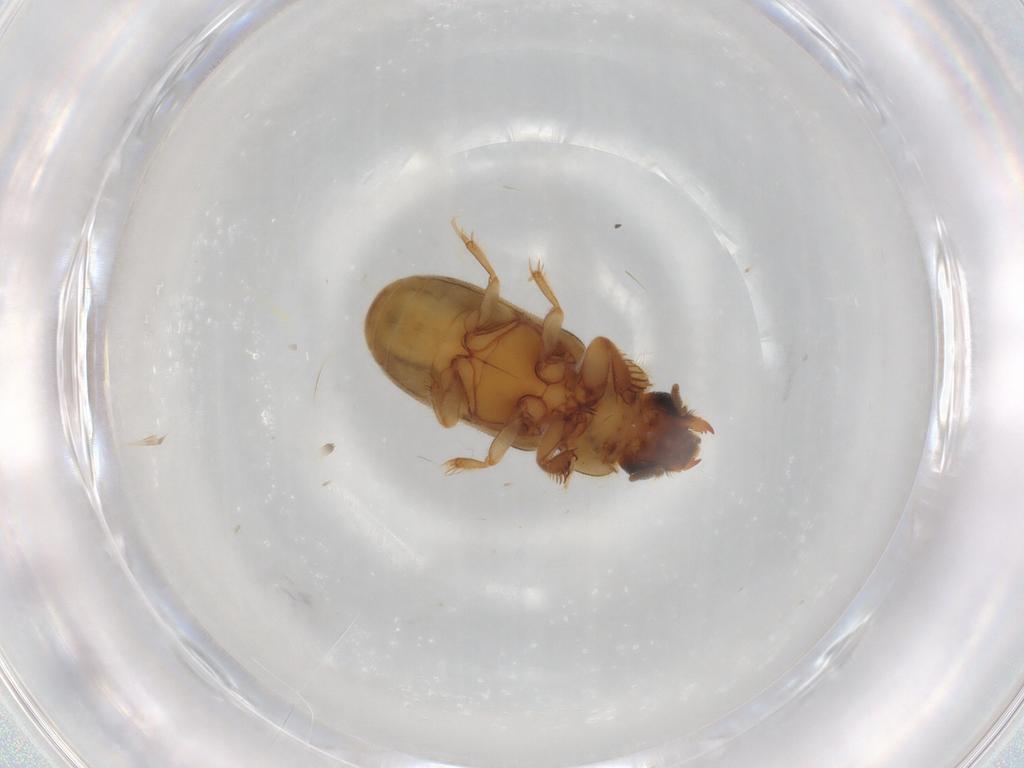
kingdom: Animalia
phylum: Arthropoda
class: Insecta
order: Coleoptera
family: Heteroceridae
